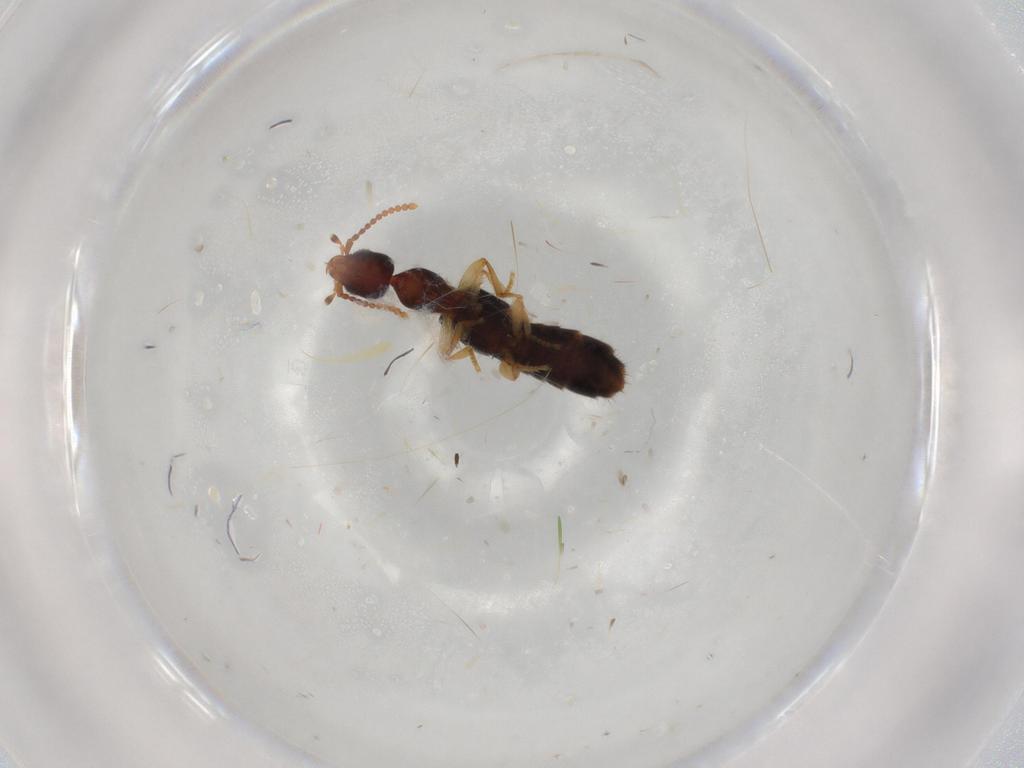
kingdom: Animalia
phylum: Arthropoda
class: Insecta
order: Coleoptera
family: Staphylinidae
